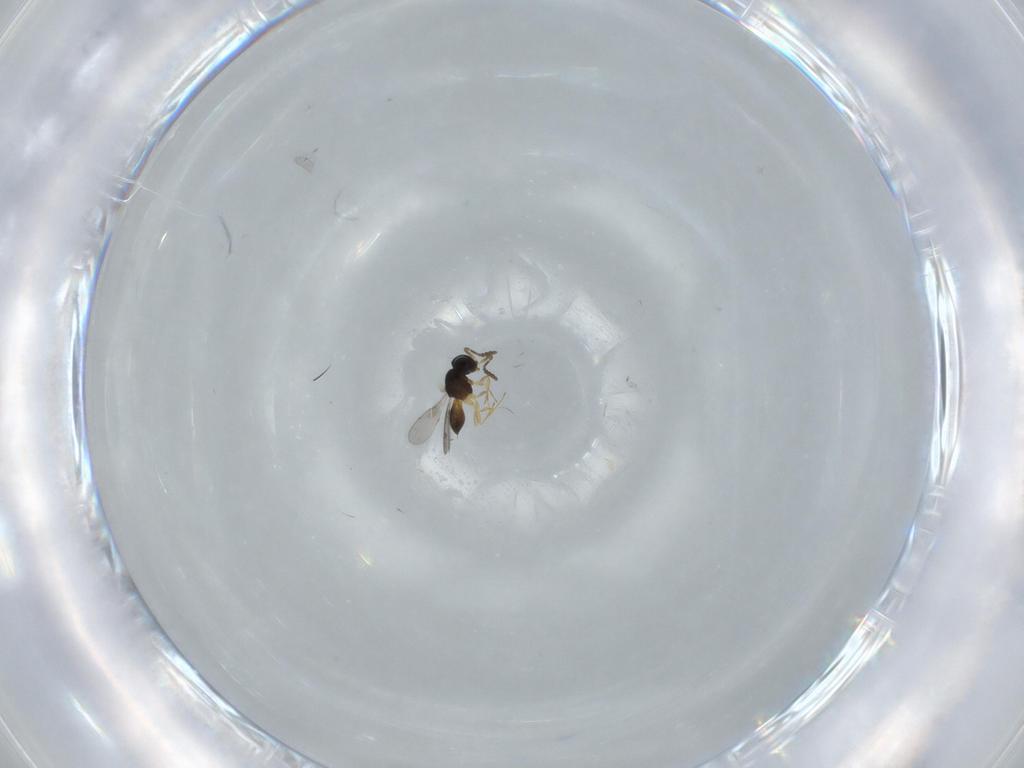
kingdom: Animalia
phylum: Arthropoda
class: Insecta
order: Hymenoptera
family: Scelionidae
